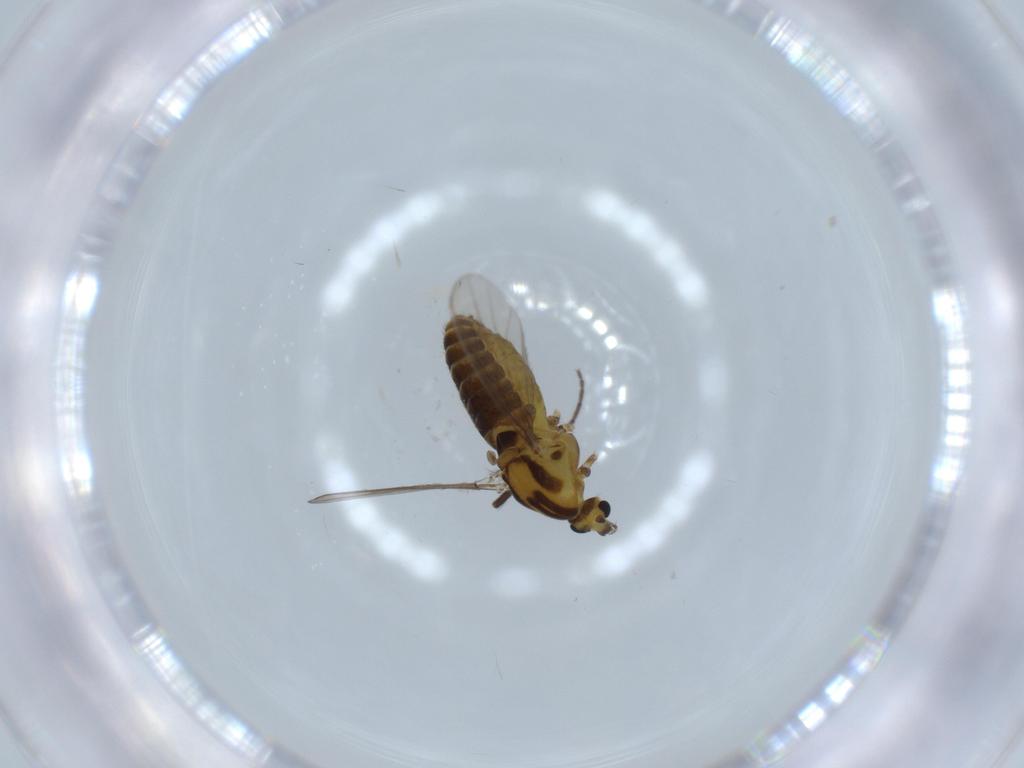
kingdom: Animalia
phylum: Arthropoda
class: Insecta
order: Diptera
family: Chironomidae
